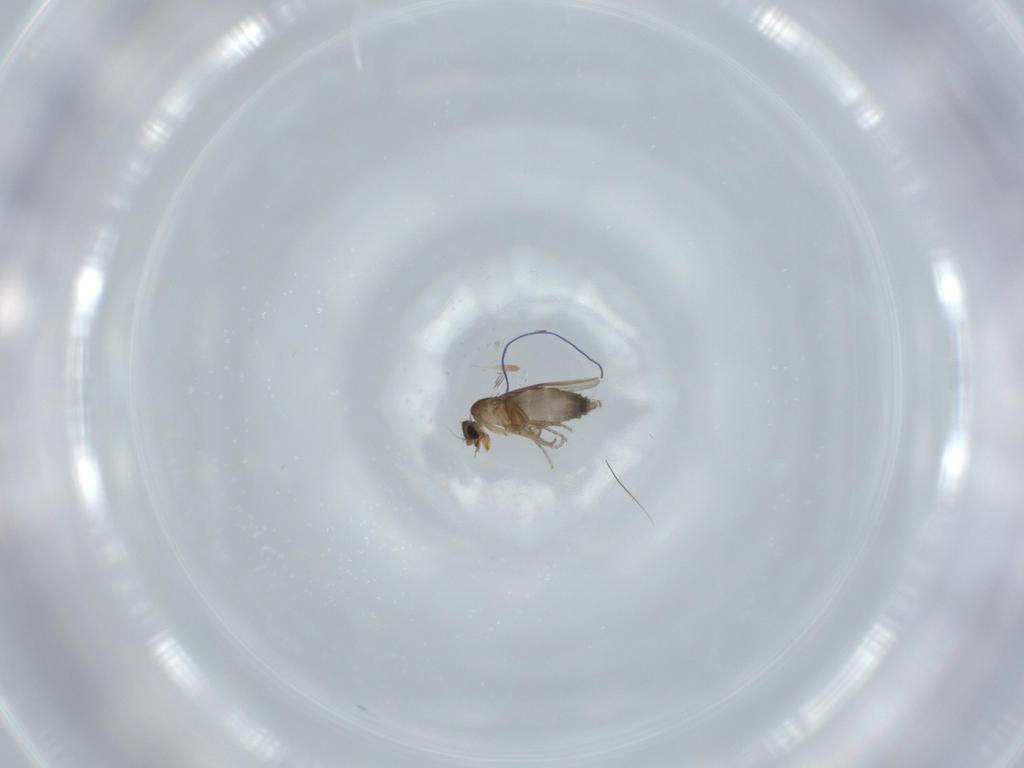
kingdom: Animalia
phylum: Arthropoda
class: Insecta
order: Diptera
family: Phoridae
